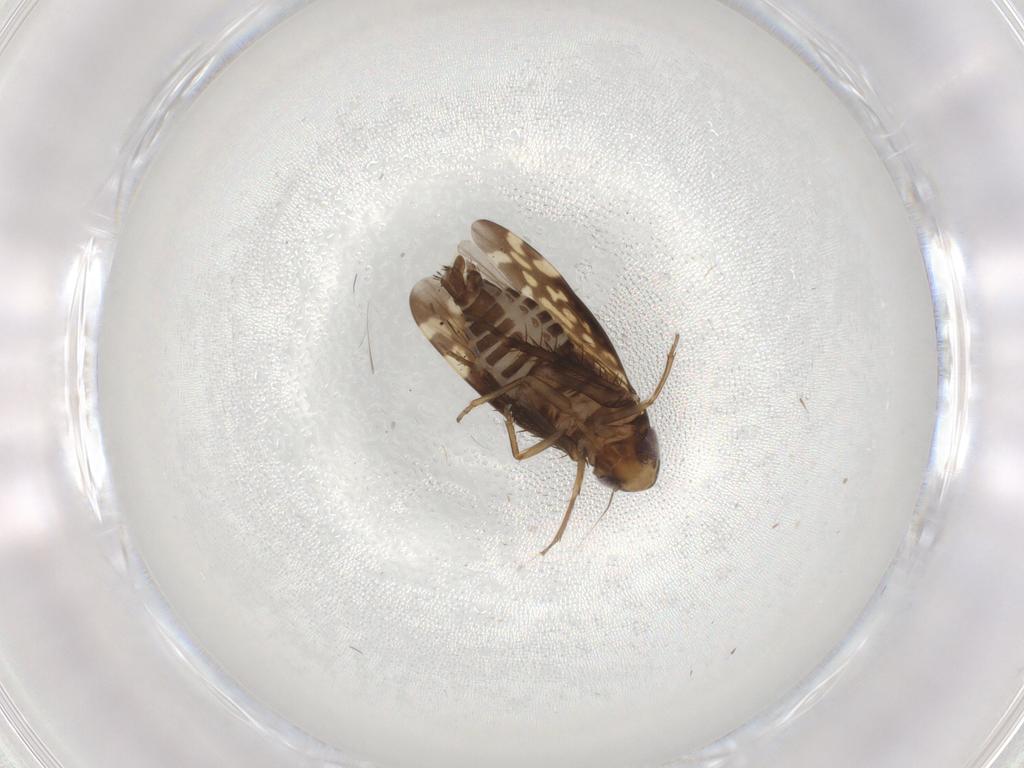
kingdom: Animalia
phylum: Arthropoda
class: Insecta
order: Hemiptera
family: Cicadellidae
